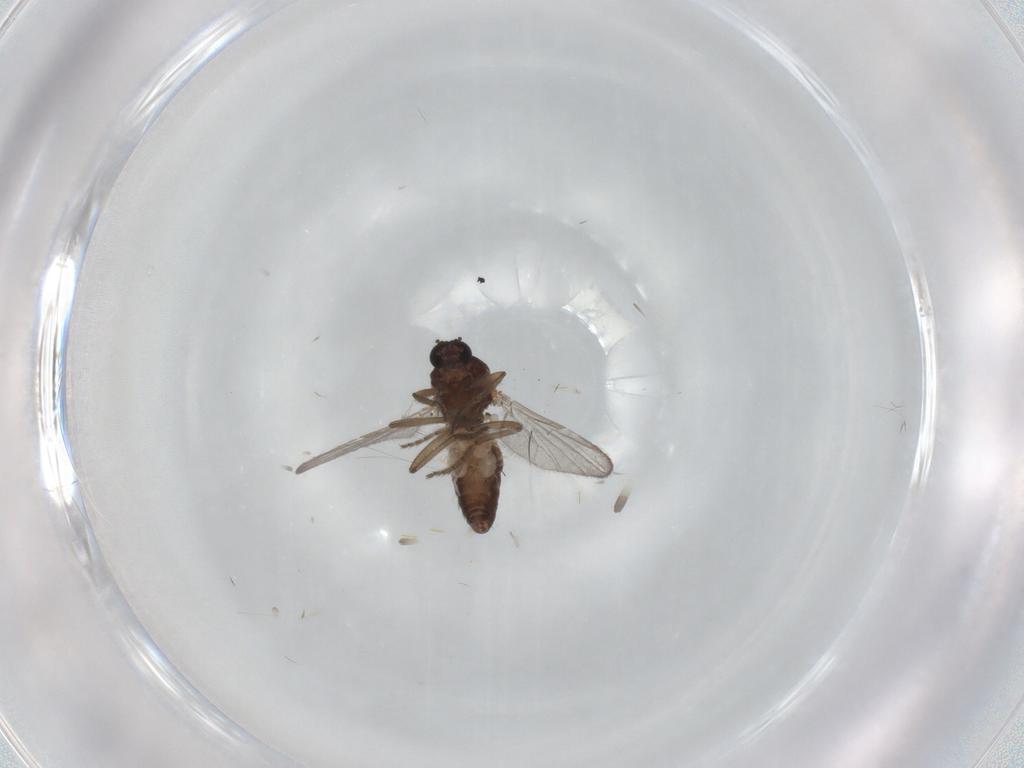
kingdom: Animalia
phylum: Arthropoda
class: Insecta
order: Diptera
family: Ceratopogonidae
